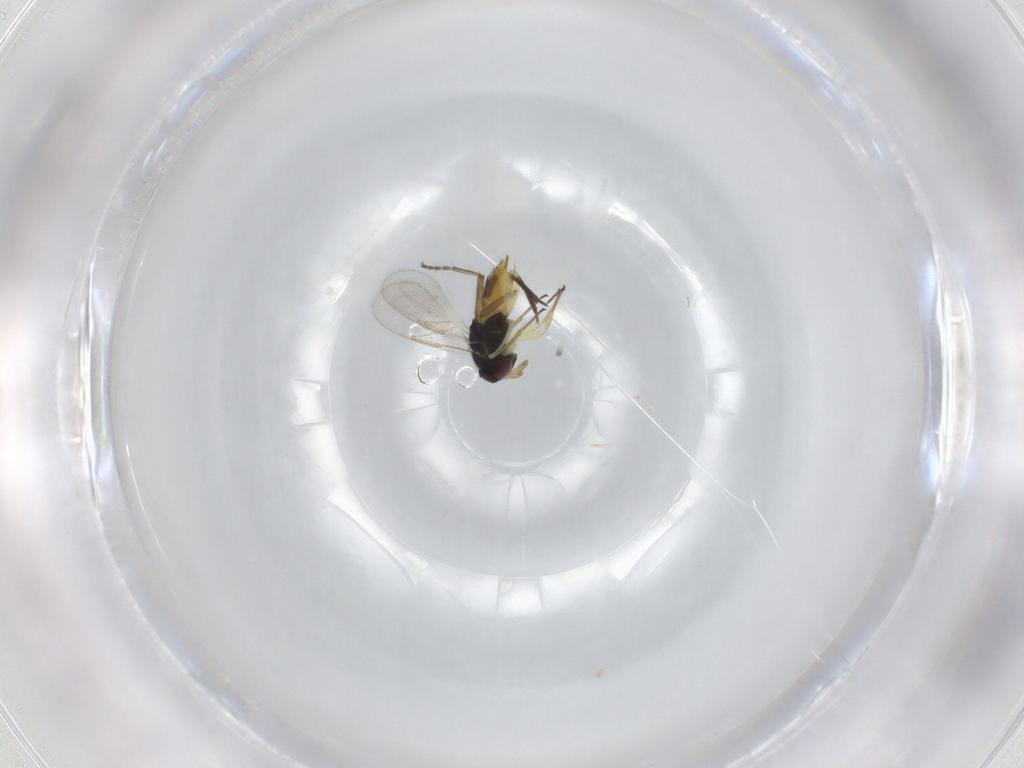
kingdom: Animalia
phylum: Arthropoda
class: Insecta
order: Hymenoptera
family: Aphelinidae
